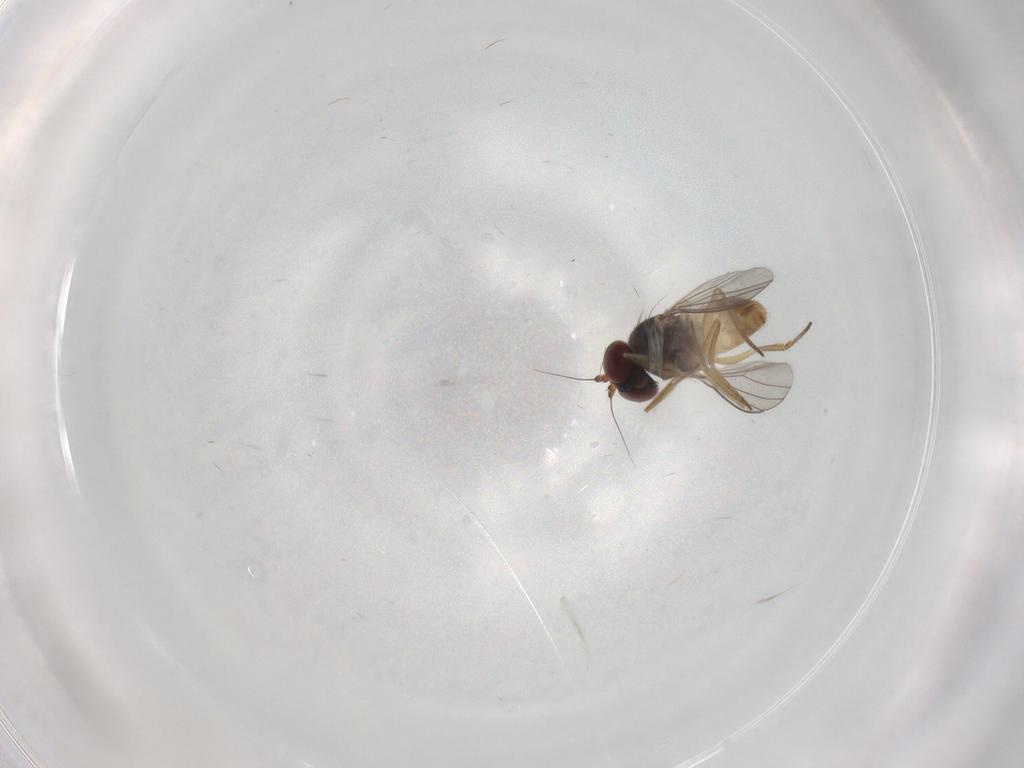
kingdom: Animalia
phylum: Arthropoda
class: Insecta
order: Diptera
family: Dolichopodidae
